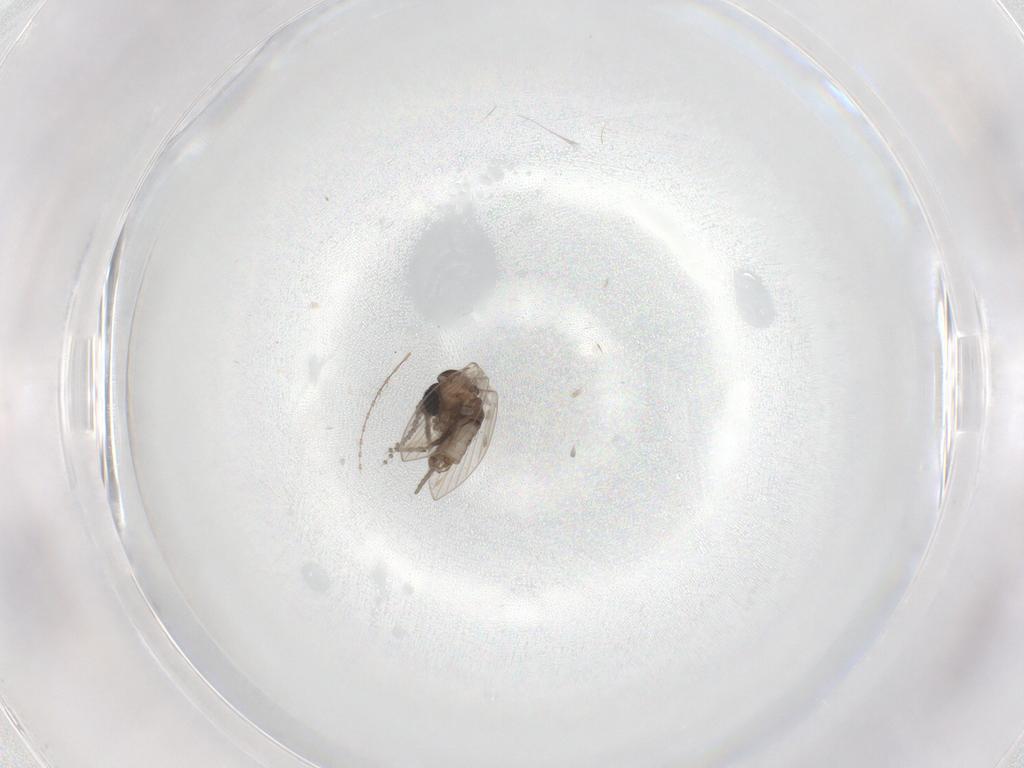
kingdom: Animalia
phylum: Arthropoda
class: Insecta
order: Diptera
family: Psychodidae
